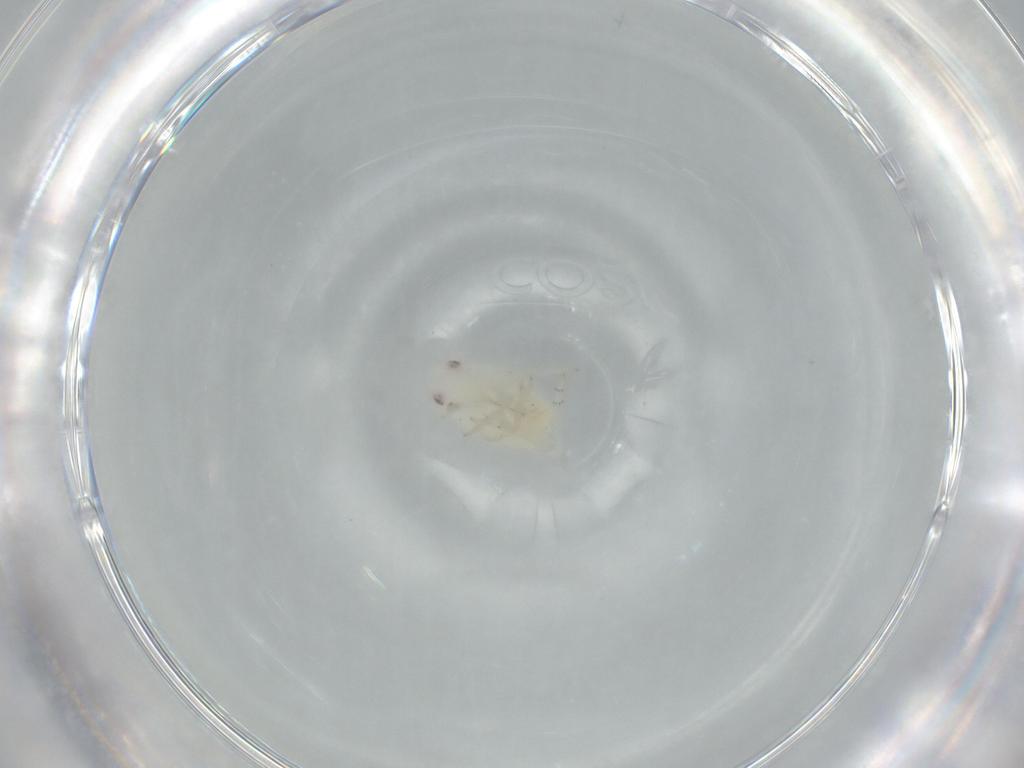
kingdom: Animalia
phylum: Arthropoda
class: Insecta
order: Hemiptera
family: Flatidae
